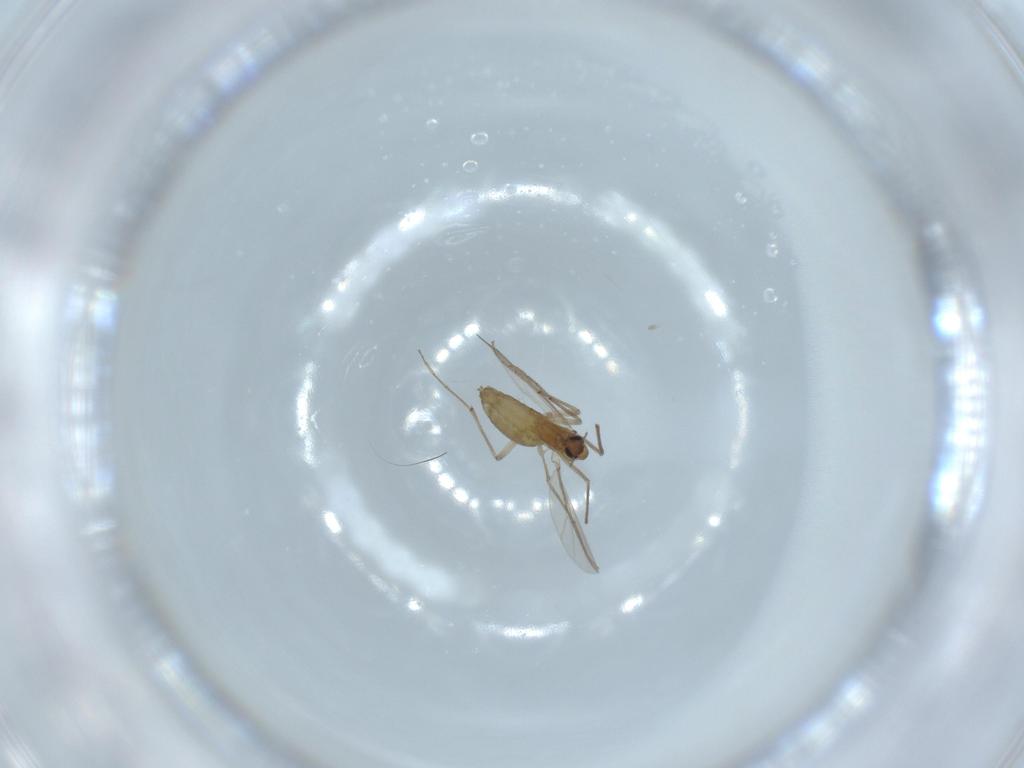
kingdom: Animalia
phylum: Arthropoda
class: Insecta
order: Diptera
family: Chironomidae
